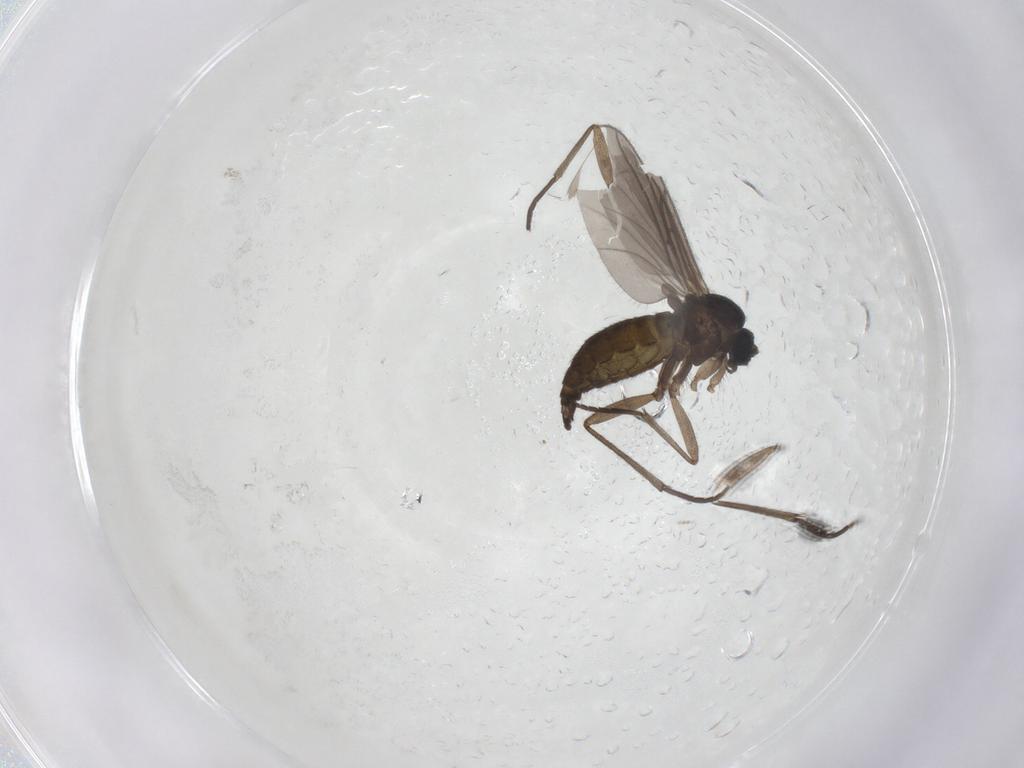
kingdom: Animalia
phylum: Arthropoda
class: Insecta
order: Diptera
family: Sciaridae
